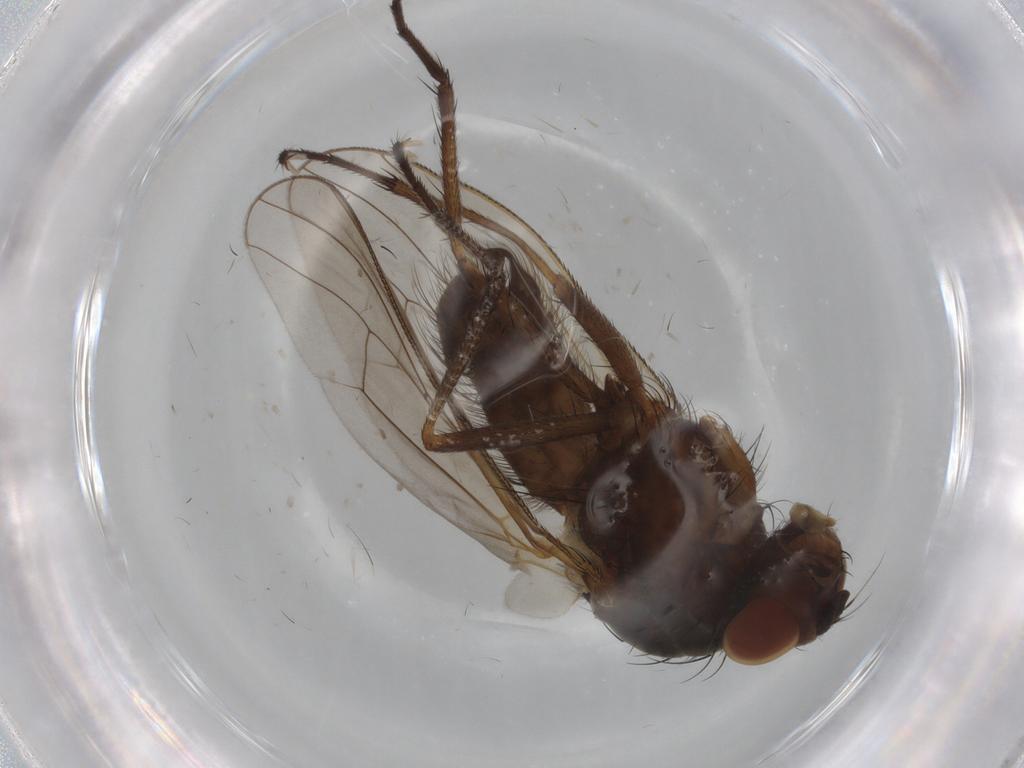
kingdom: Animalia
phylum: Arthropoda
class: Insecta
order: Diptera
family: Anthomyiidae
